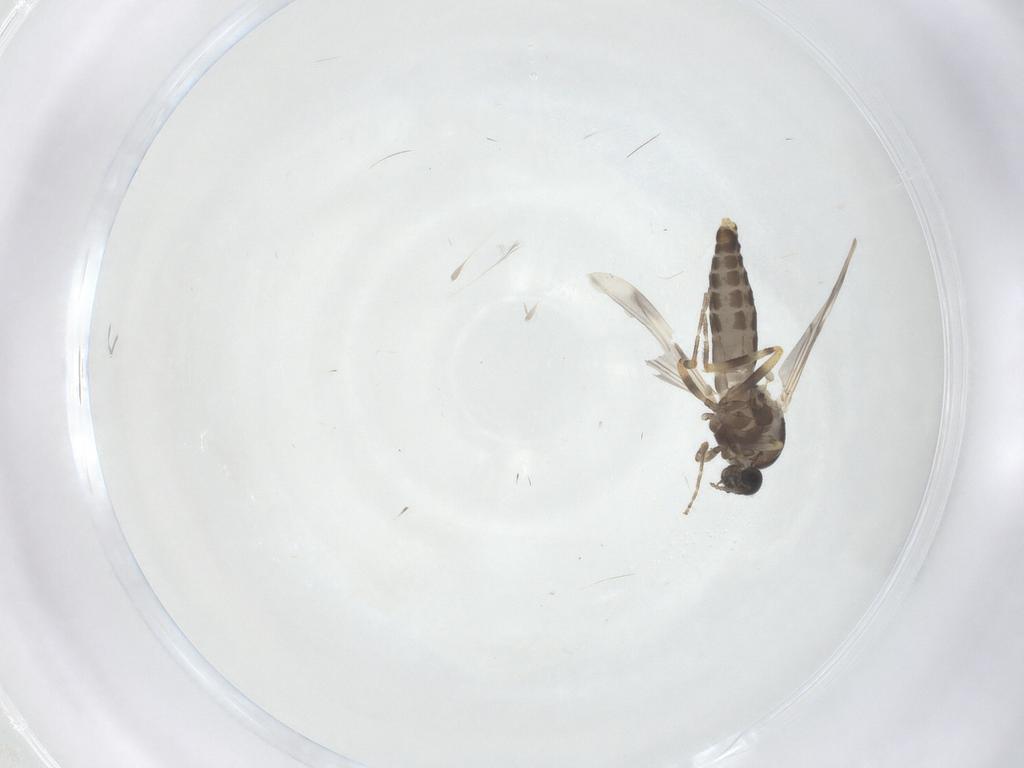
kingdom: Animalia
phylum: Arthropoda
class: Insecta
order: Diptera
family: Ceratopogonidae
